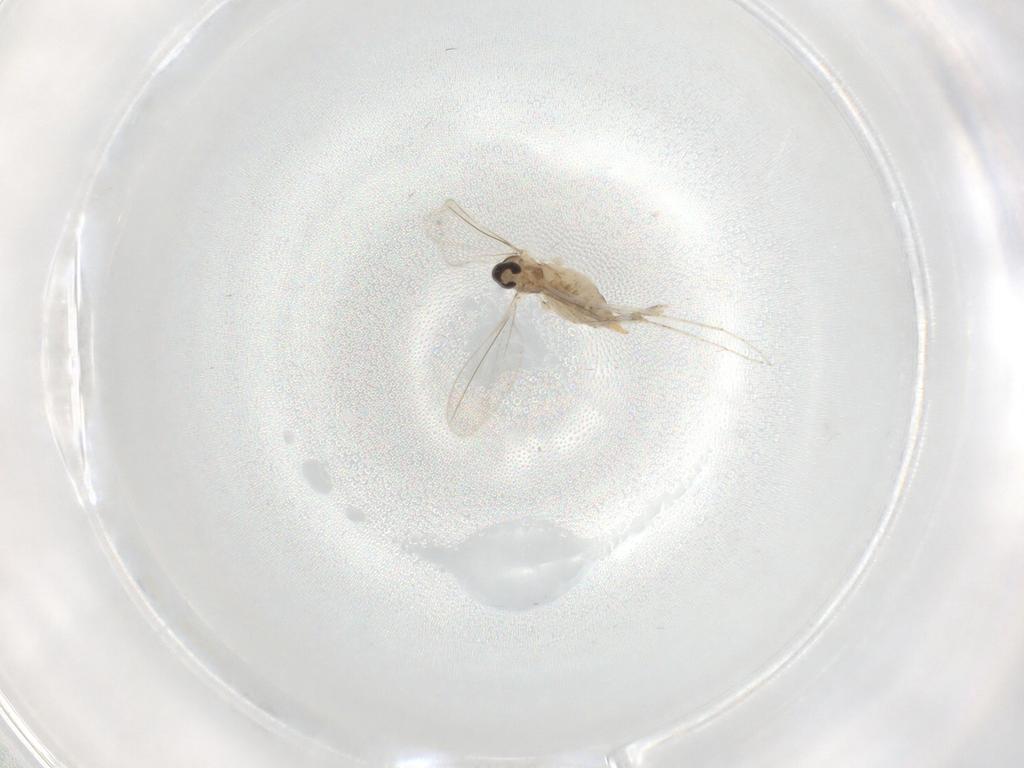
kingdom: Animalia
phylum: Arthropoda
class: Insecta
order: Diptera
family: Cecidomyiidae
